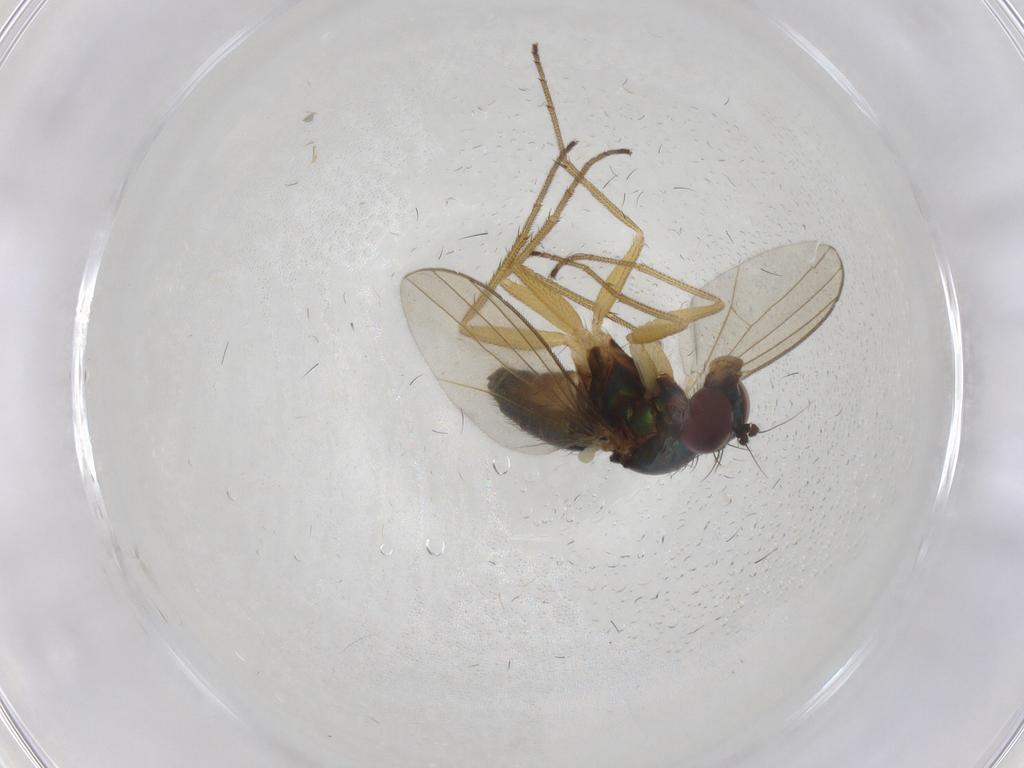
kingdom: Animalia
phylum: Arthropoda
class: Insecta
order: Diptera
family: Dolichopodidae
